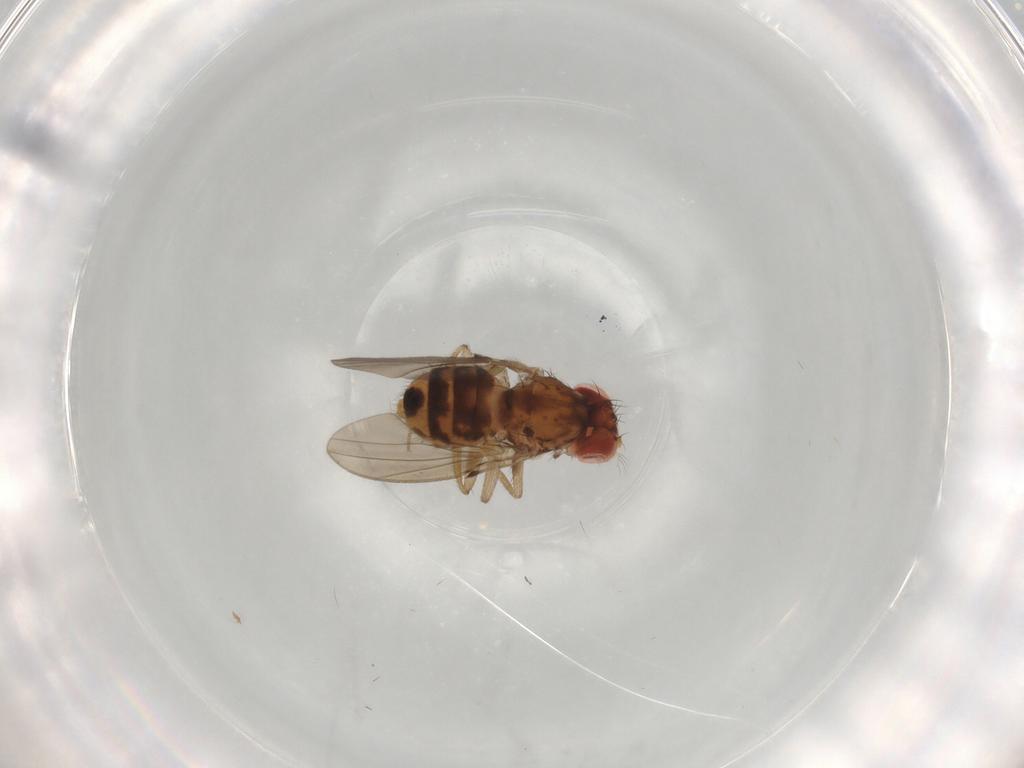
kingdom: Animalia
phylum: Arthropoda
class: Insecta
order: Diptera
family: Drosophilidae
